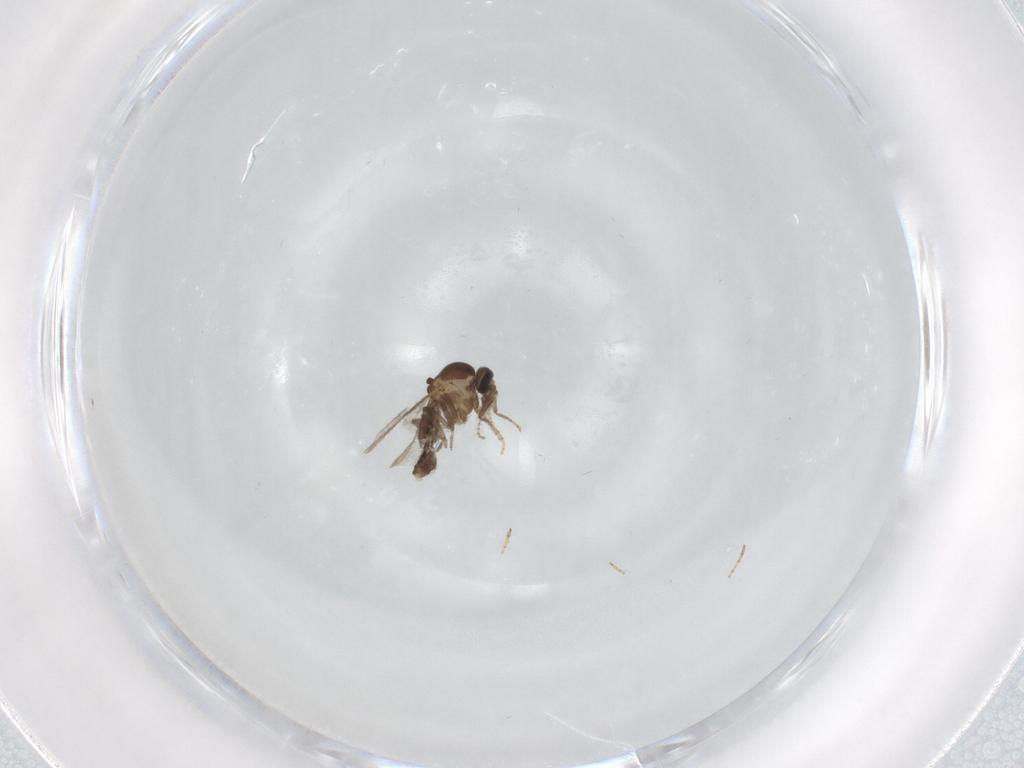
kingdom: Animalia
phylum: Arthropoda
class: Insecta
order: Diptera
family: Ceratopogonidae
